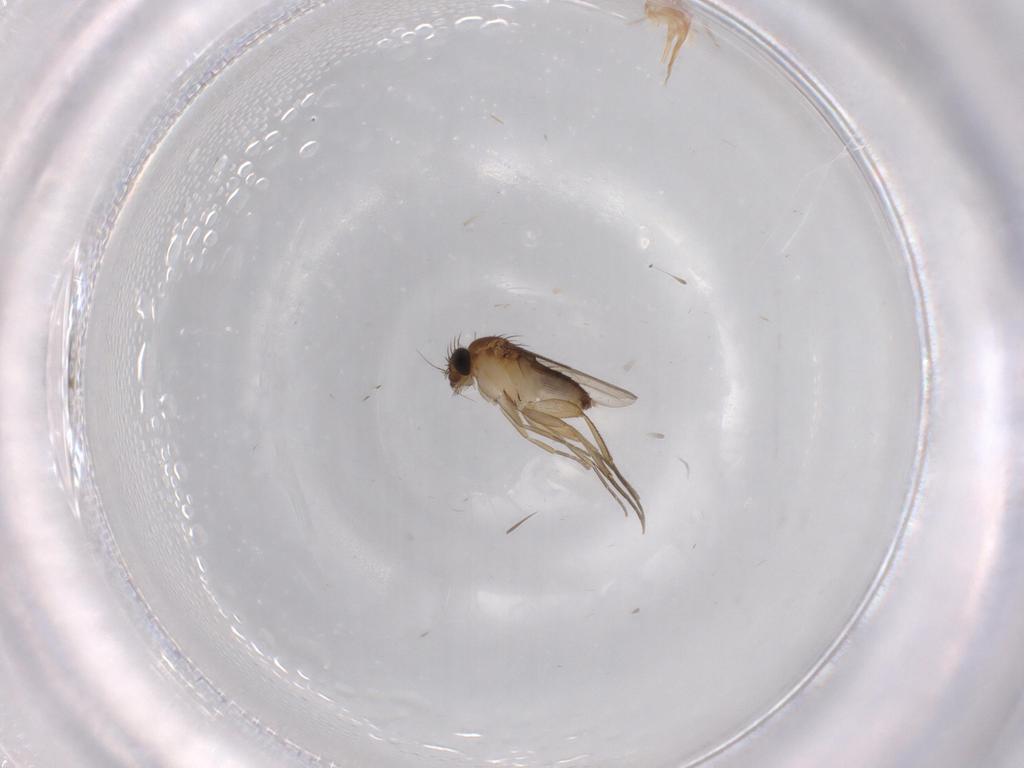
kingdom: Animalia
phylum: Arthropoda
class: Insecta
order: Diptera
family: Phoridae
